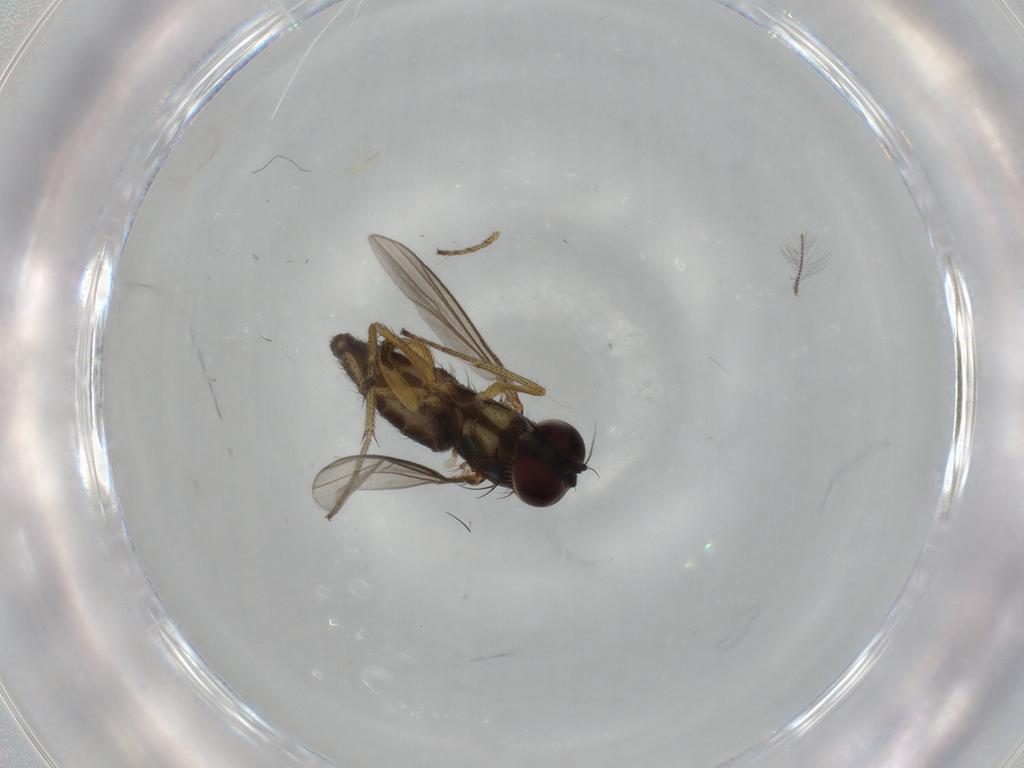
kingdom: Animalia
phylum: Arthropoda
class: Insecta
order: Diptera
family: Dolichopodidae
